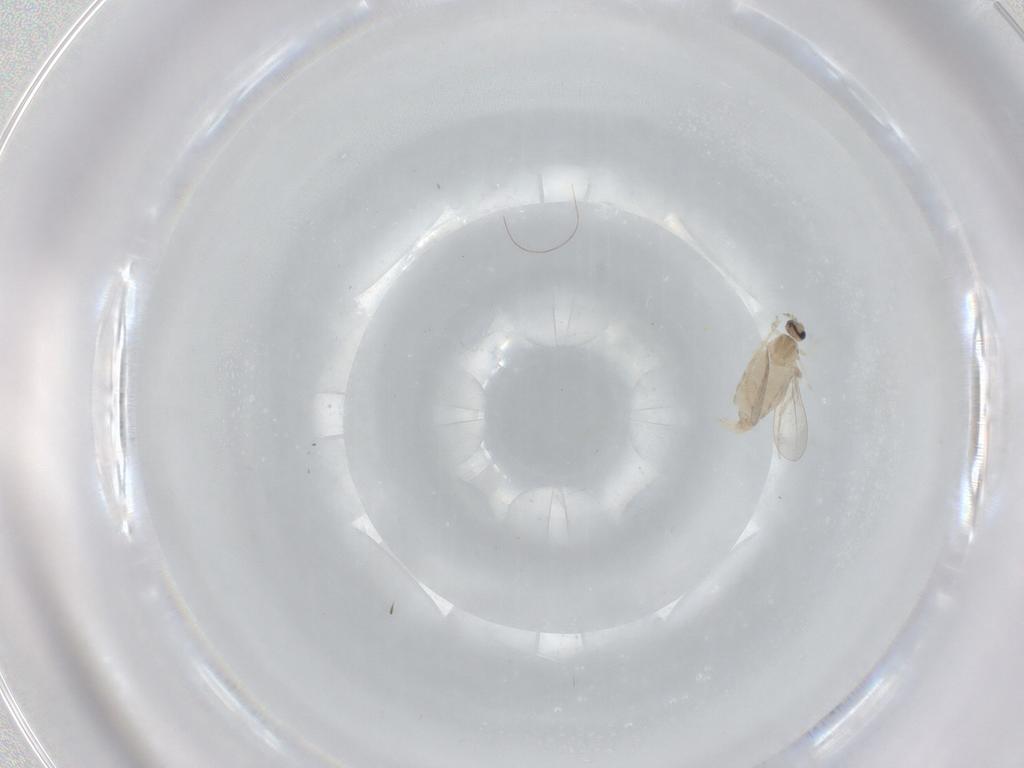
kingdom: Animalia
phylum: Arthropoda
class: Insecta
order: Diptera
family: Cecidomyiidae
